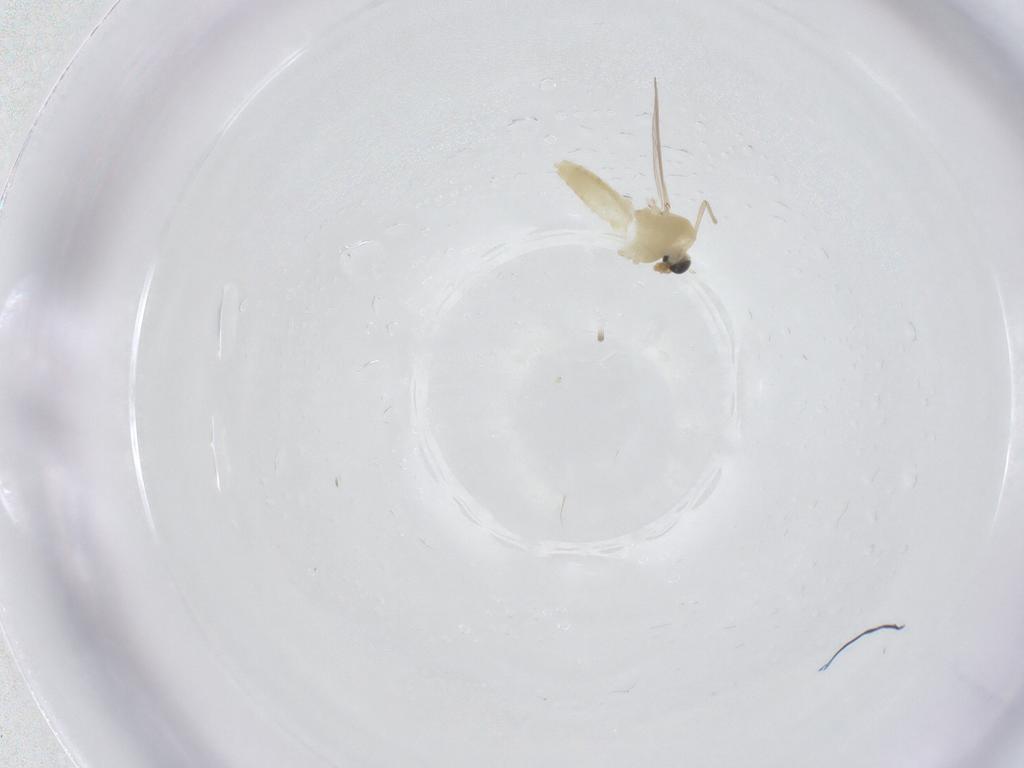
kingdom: Animalia
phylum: Arthropoda
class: Insecta
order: Diptera
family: Chironomidae
